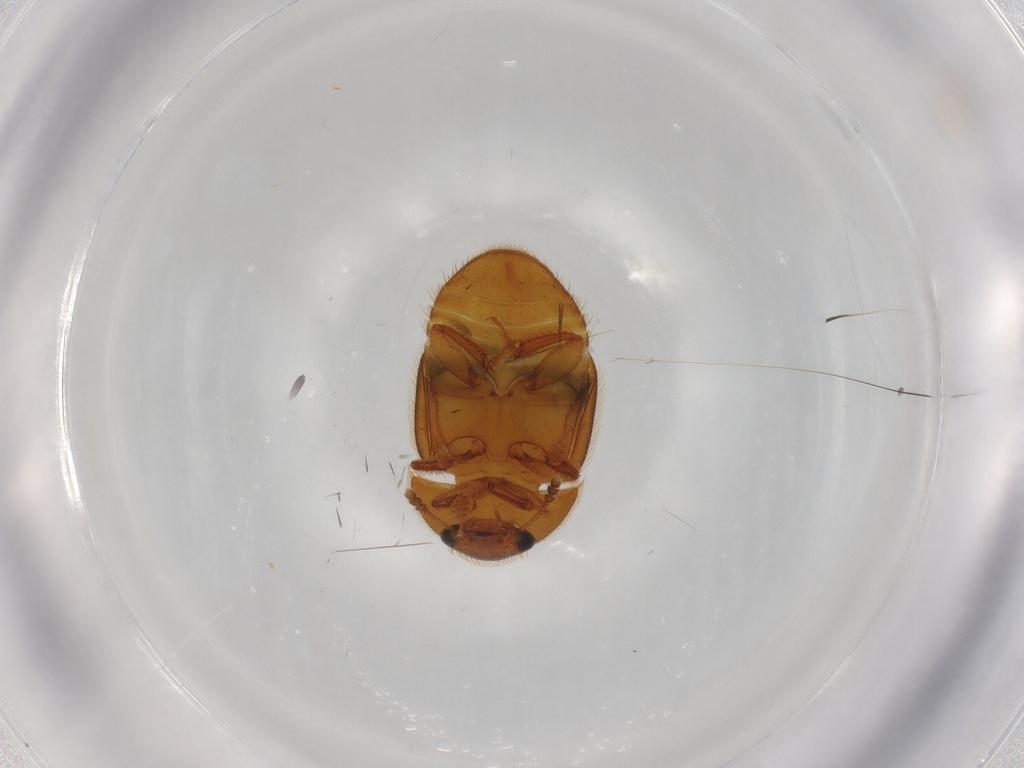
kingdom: Animalia
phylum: Arthropoda
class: Insecta
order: Coleoptera
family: Nitidulidae
